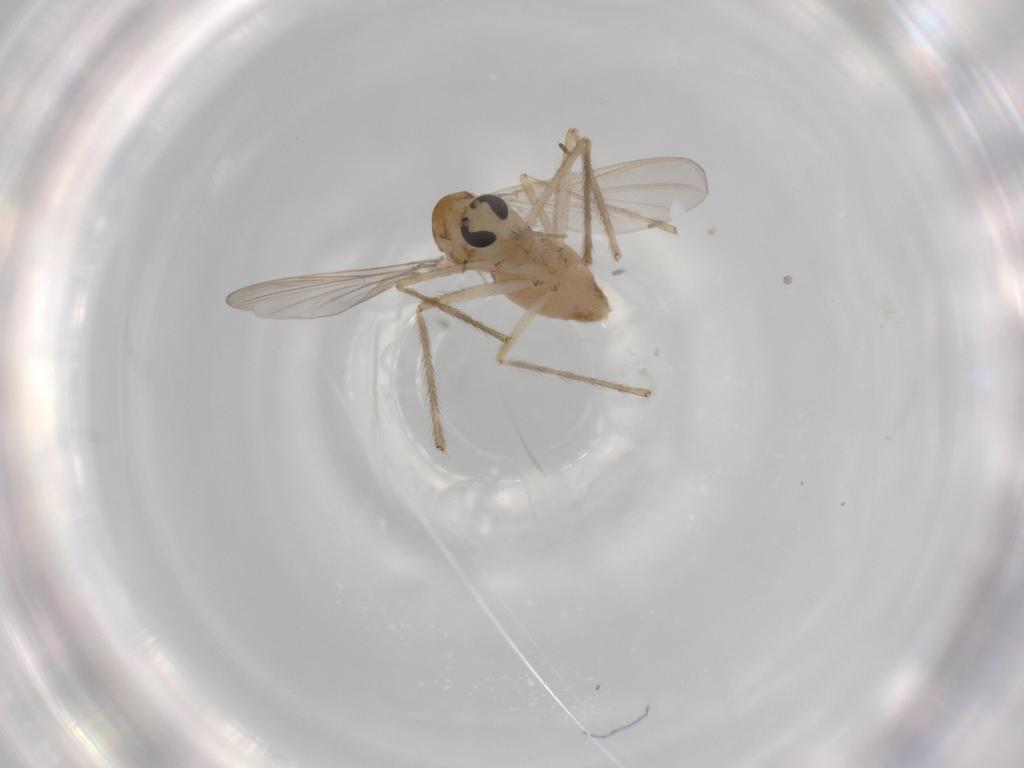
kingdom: Animalia
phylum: Arthropoda
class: Insecta
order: Diptera
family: Chironomidae
